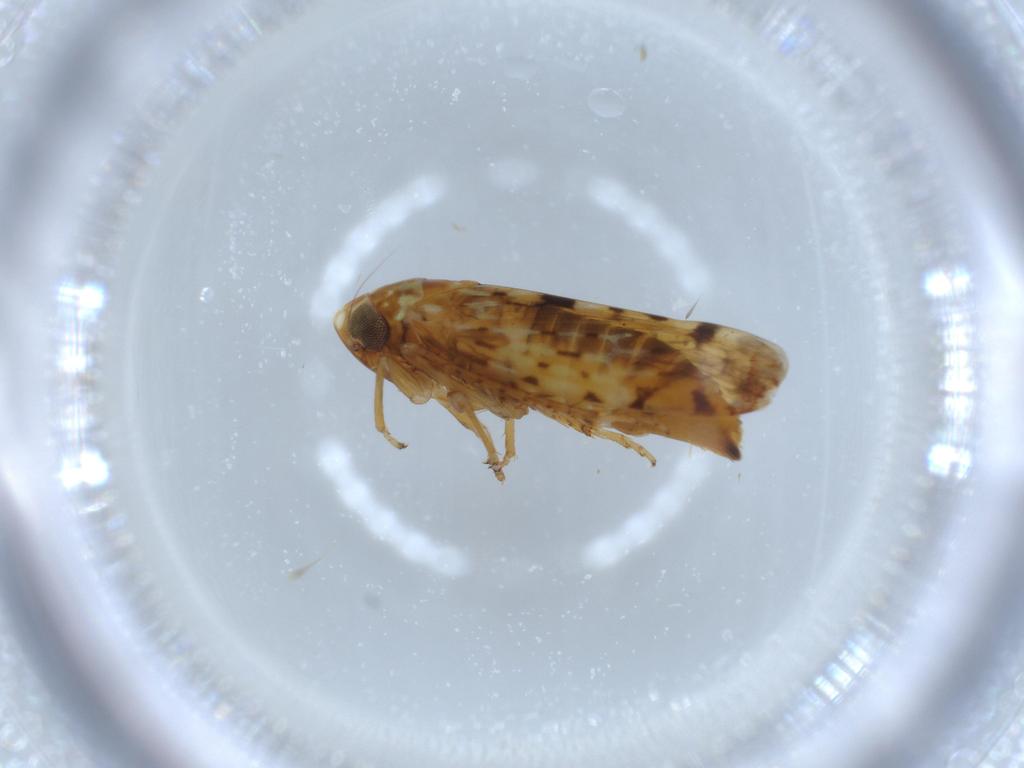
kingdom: Animalia
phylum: Arthropoda
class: Insecta
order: Hemiptera
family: Cicadellidae
